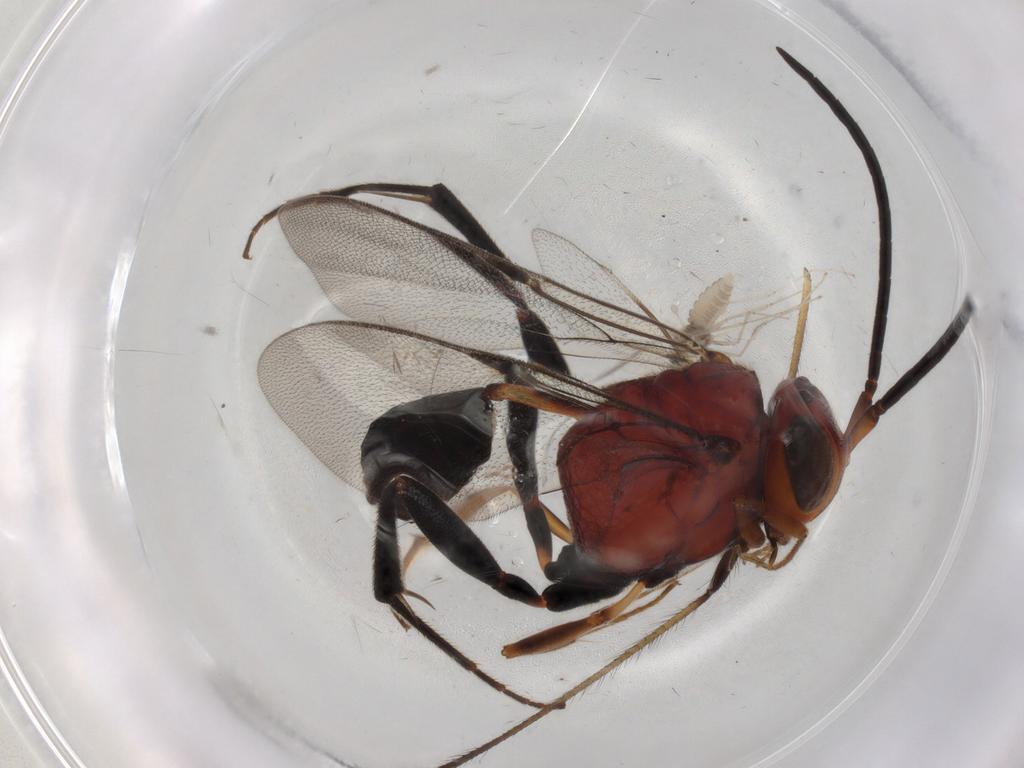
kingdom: Animalia
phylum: Arthropoda
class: Insecta
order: Diptera
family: Limoniidae
